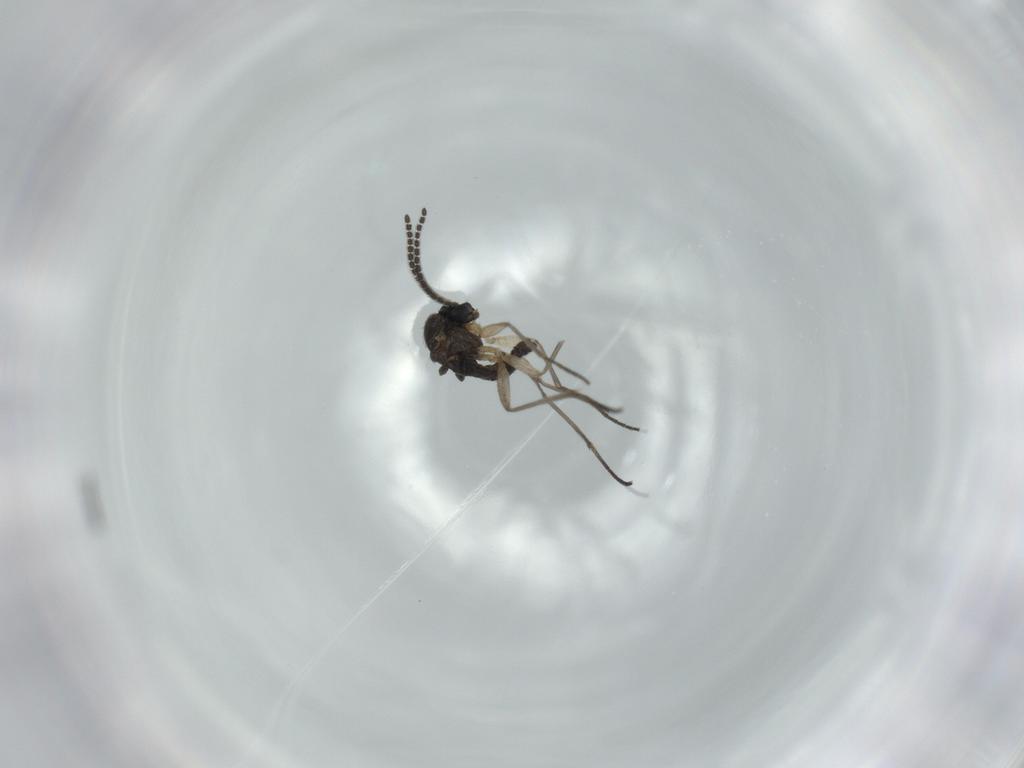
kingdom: Animalia
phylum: Arthropoda
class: Insecta
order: Diptera
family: Sciaridae
